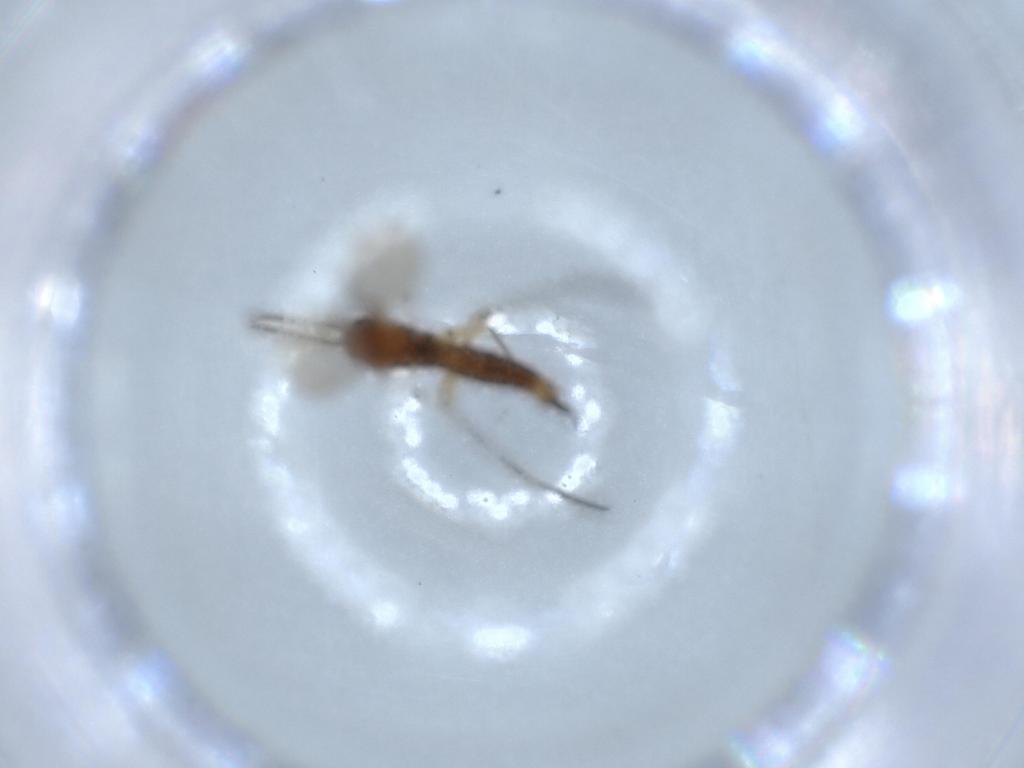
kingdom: Animalia
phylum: Arthropoda
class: Insecta
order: Diptera
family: Sciaridae
